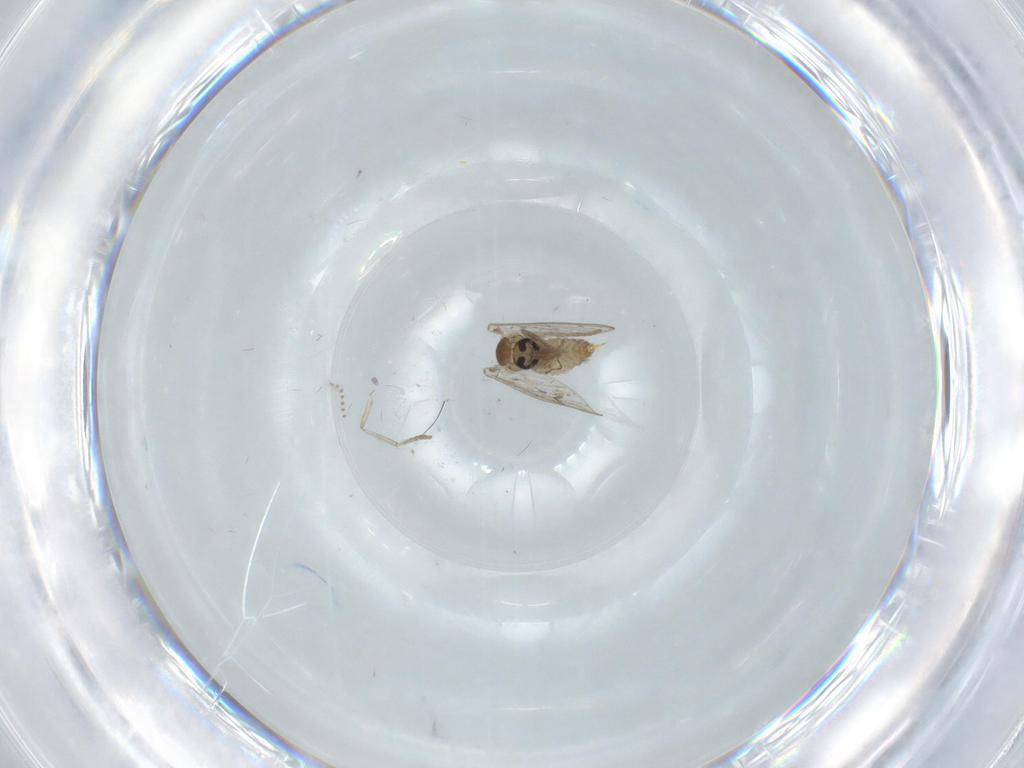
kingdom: Animalia
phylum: Arthropoda
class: Insecta
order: Diptera
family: Psychodidae
